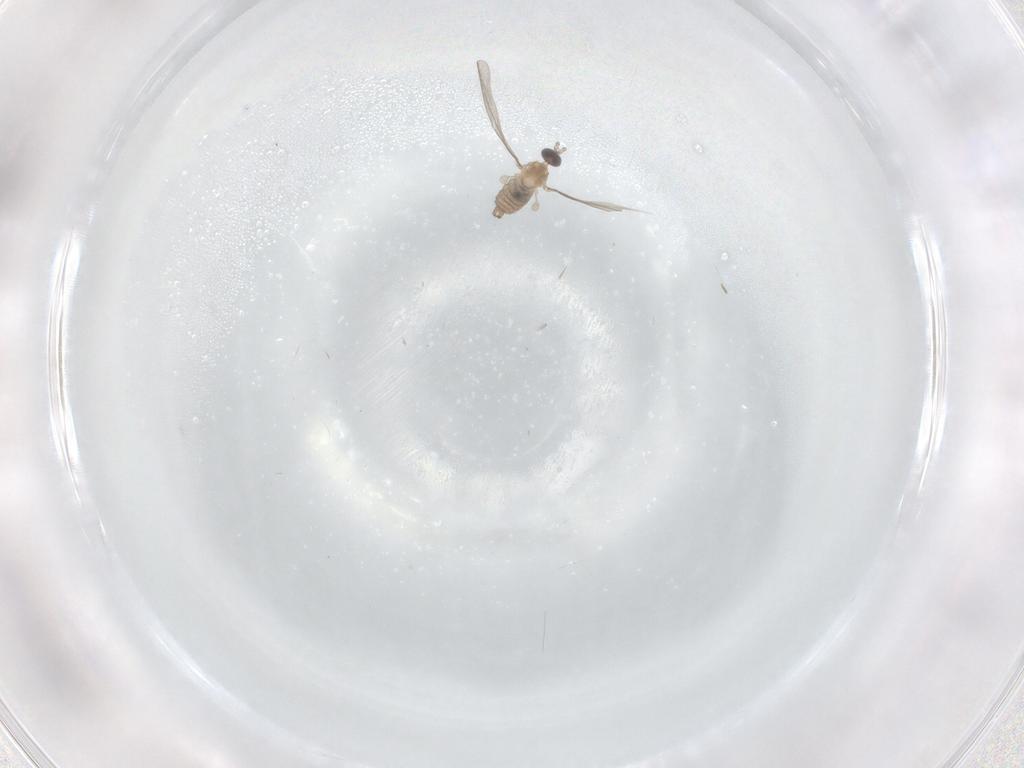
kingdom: Animalia
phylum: Arthropoda
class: Insecta
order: Diptera
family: Cecidomyiidae
